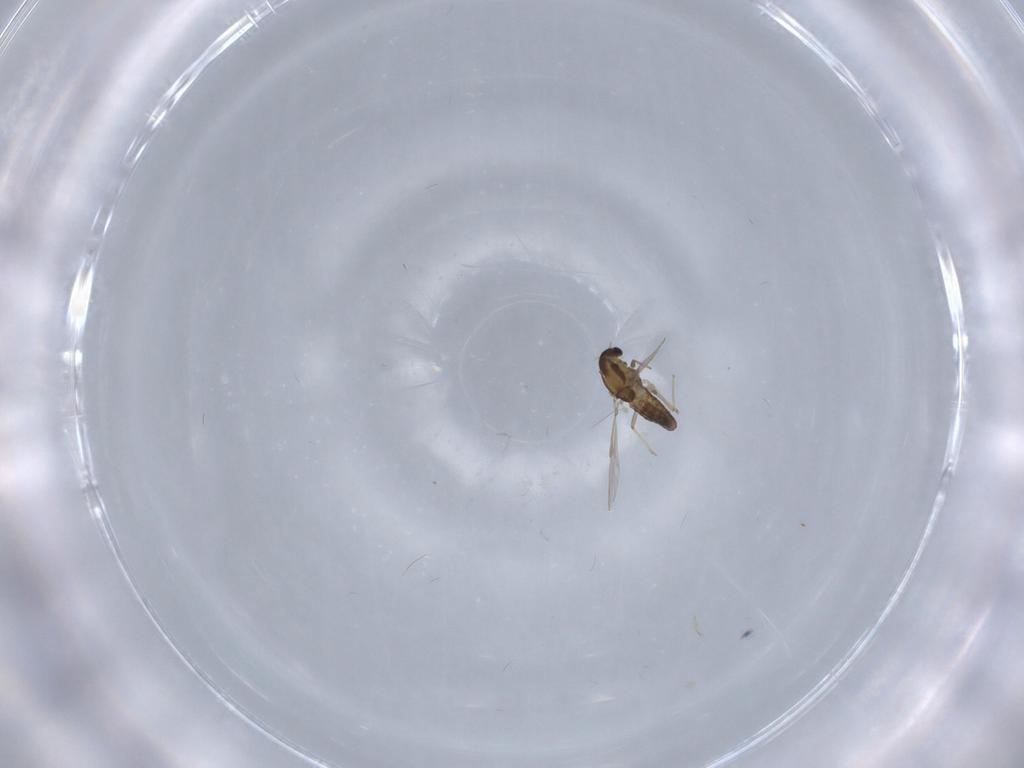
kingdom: Animalia
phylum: Arthropoda
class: Insecta
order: Diptera
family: Chironomidae
